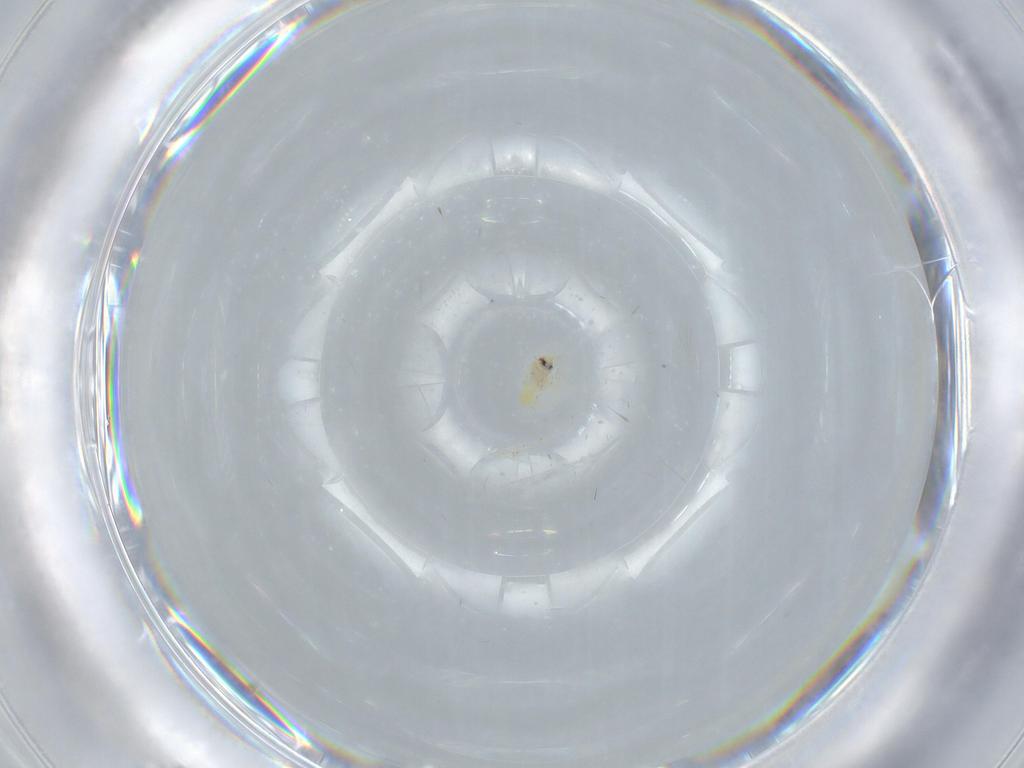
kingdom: Animalia
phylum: Arthropoda
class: Insecta
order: Hemiptera
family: Aleyrodidae
